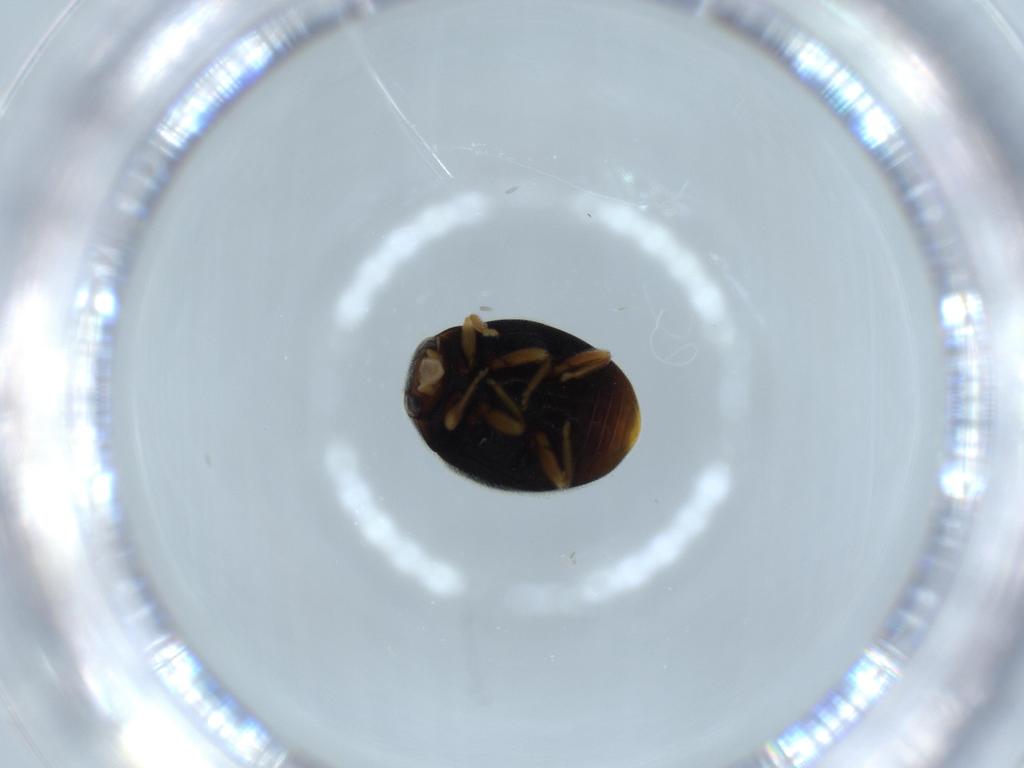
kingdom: Animalia
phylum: Arthropoda
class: Insecta
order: Coleoptera
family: Coccinellidae
